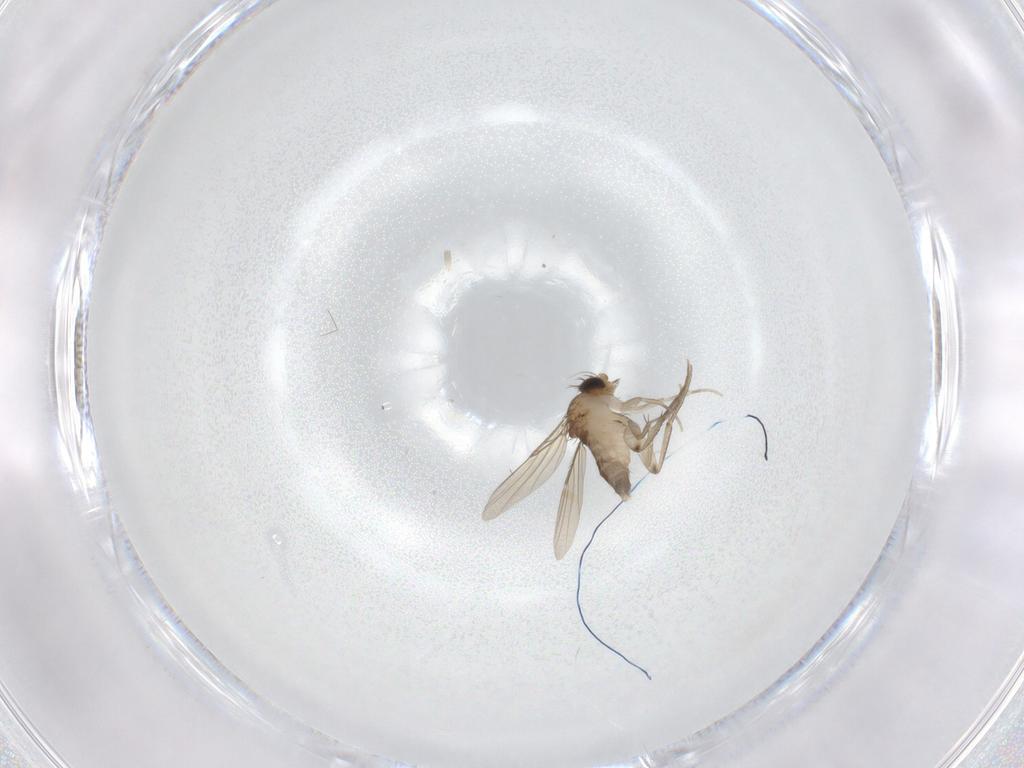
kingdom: Animalia
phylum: Arthropoda
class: Insecta
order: Diptera
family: Phoridae
